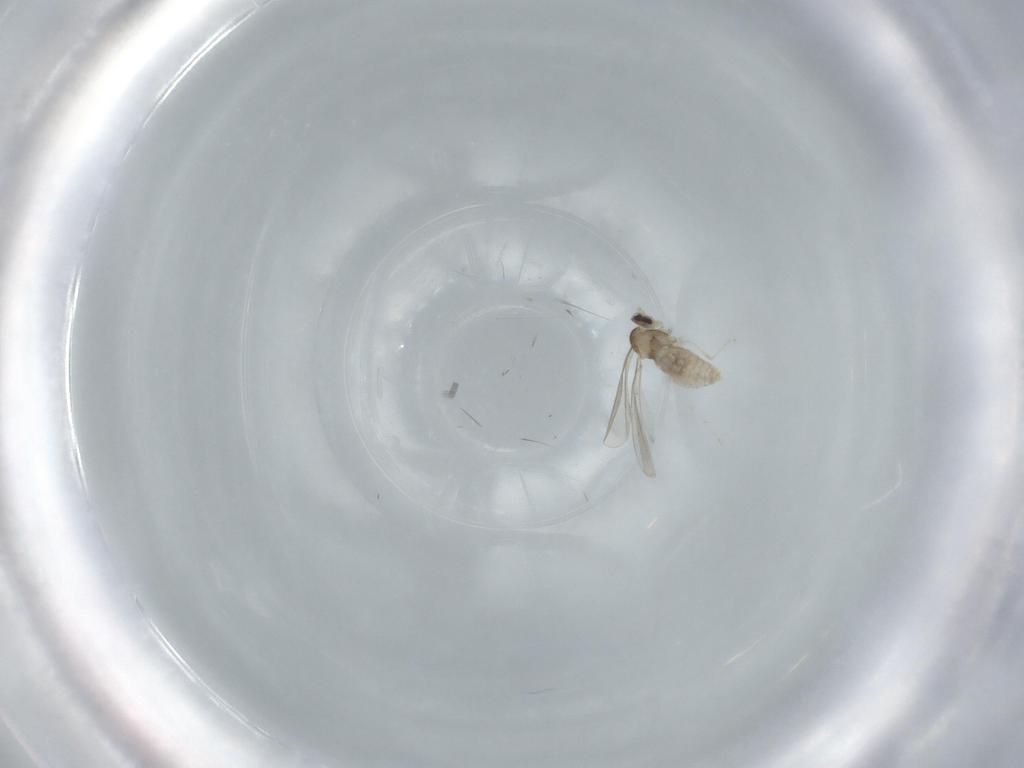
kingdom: Animalia
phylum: Arthropoda
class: Insecta
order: Diptera
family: Cecidomyiidae
